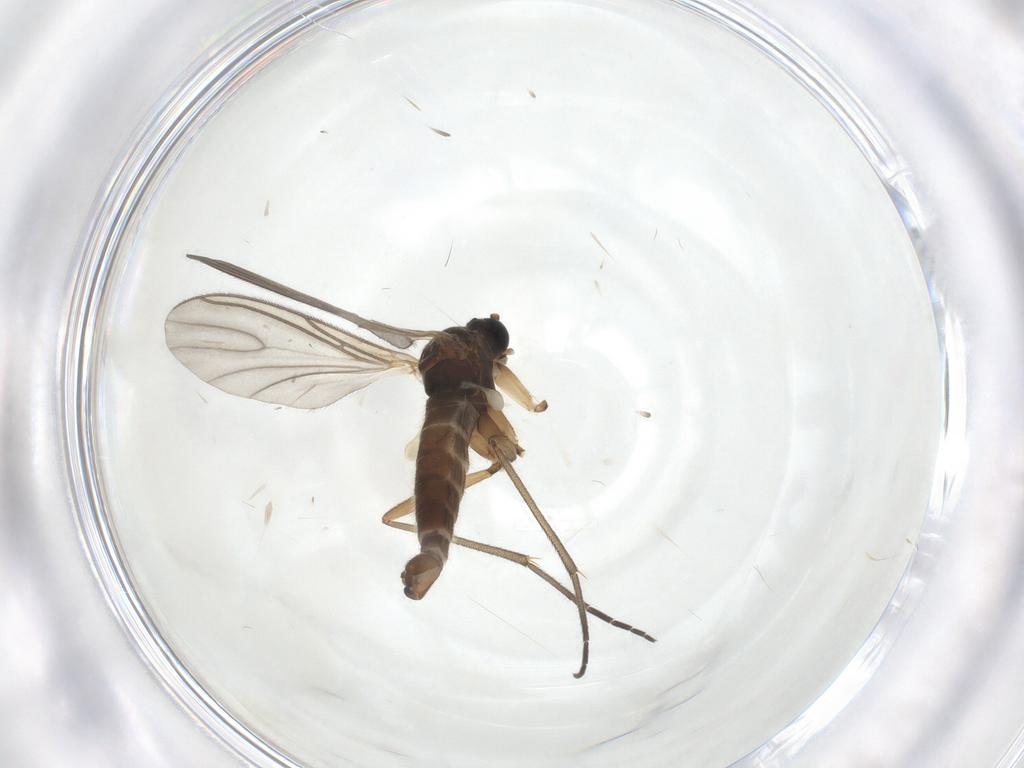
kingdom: Animalia
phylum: Arthropoda
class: Insecta
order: Diptera
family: Sciaridae
